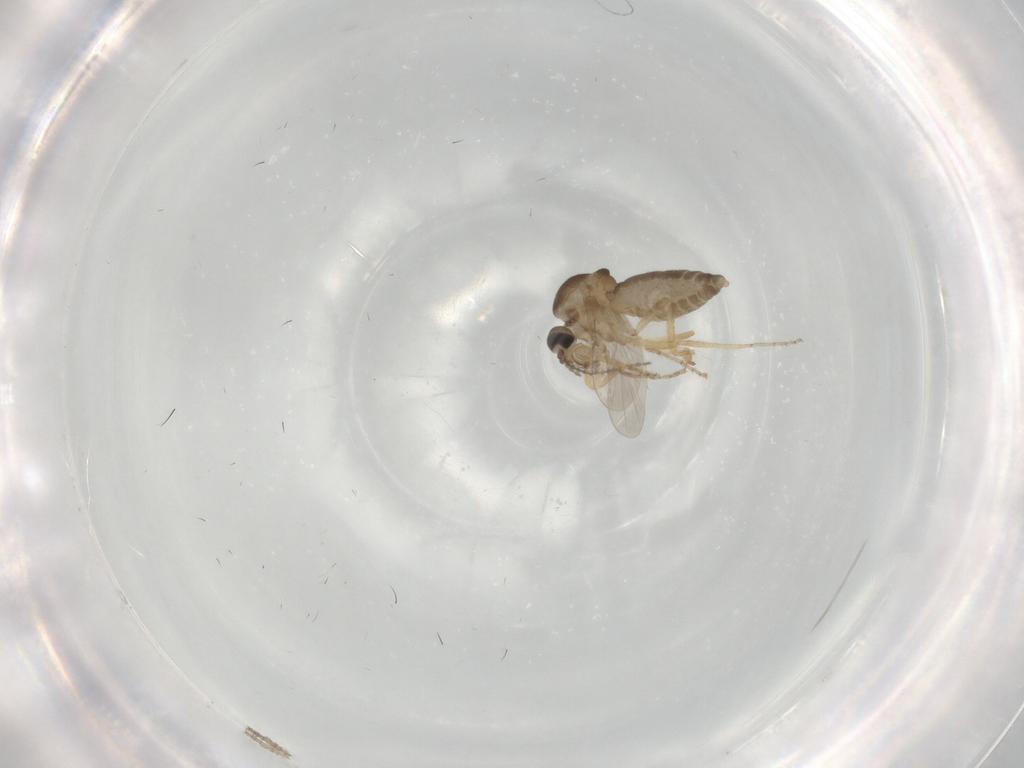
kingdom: Animalia
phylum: Arthropoda
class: Insecta
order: Diptera
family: Ceratopogonidae
